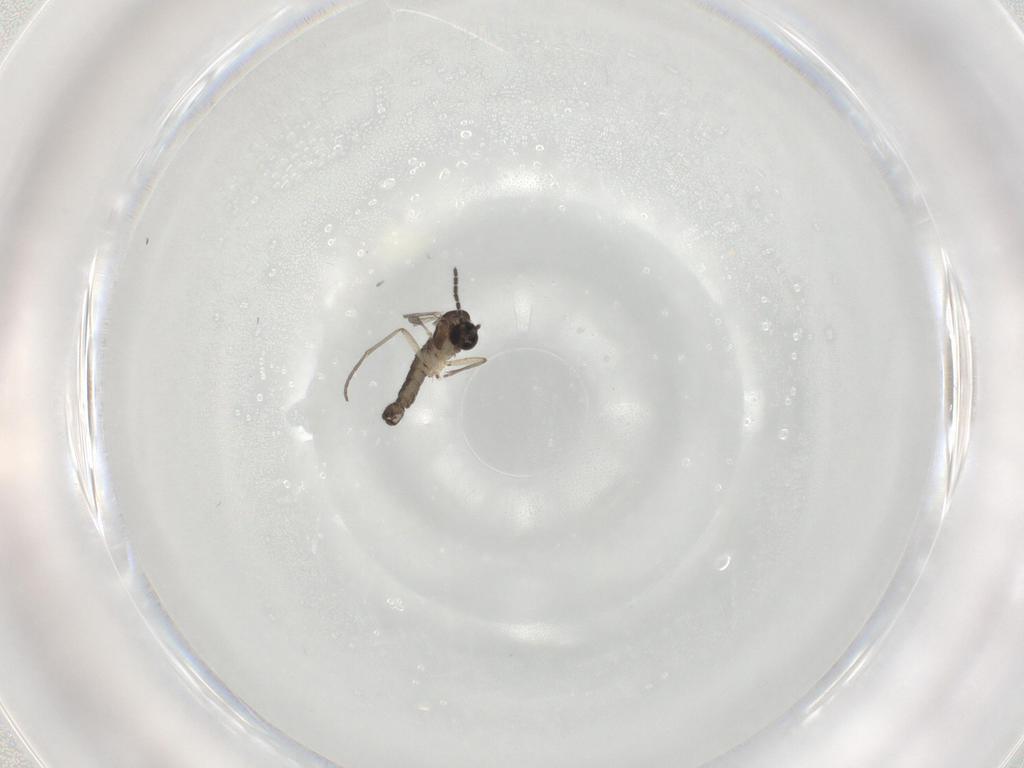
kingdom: Animalia
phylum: Arthropoda
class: Insecta
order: Diptera
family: Sciaridae
